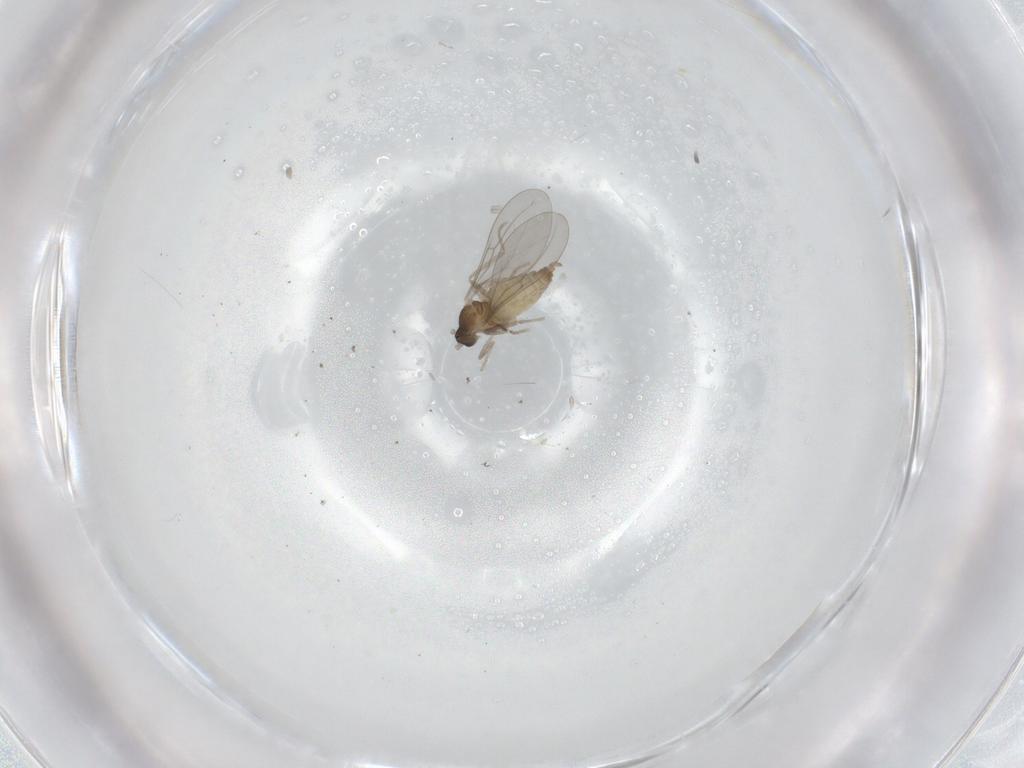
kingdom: Animalia
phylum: Arthropoda
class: Insecta
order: Diptera
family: Cecidomyiidae
